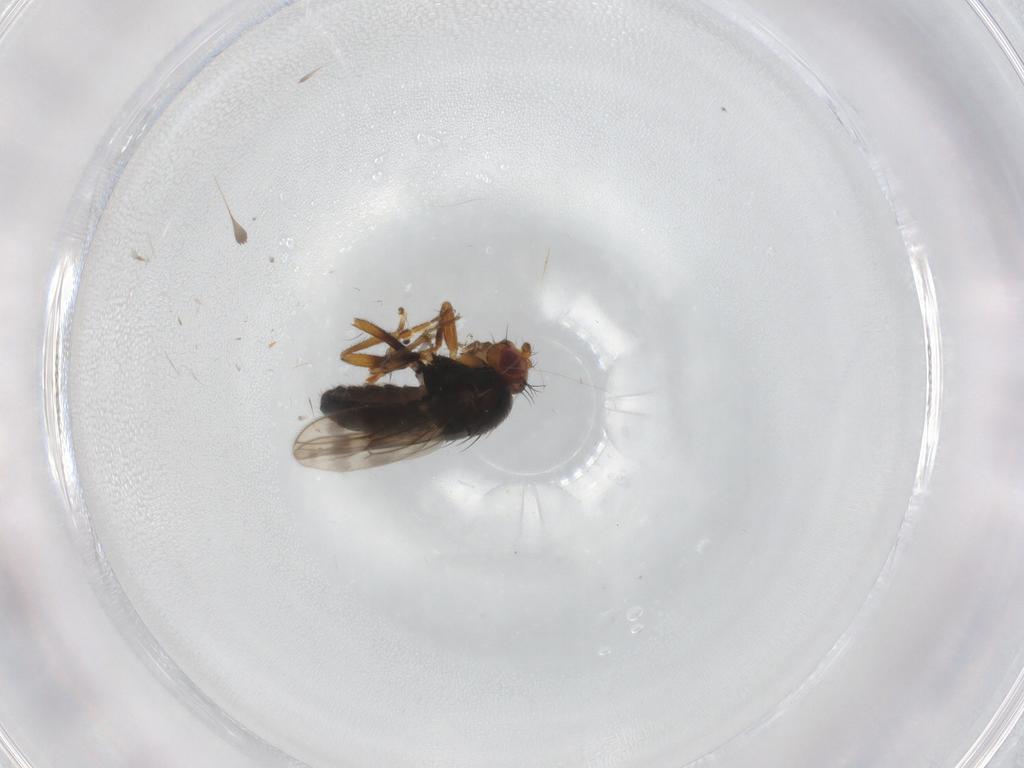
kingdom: Animalia
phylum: Arthropoda
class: Insecta
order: Diptera
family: Sphaeroceridae
